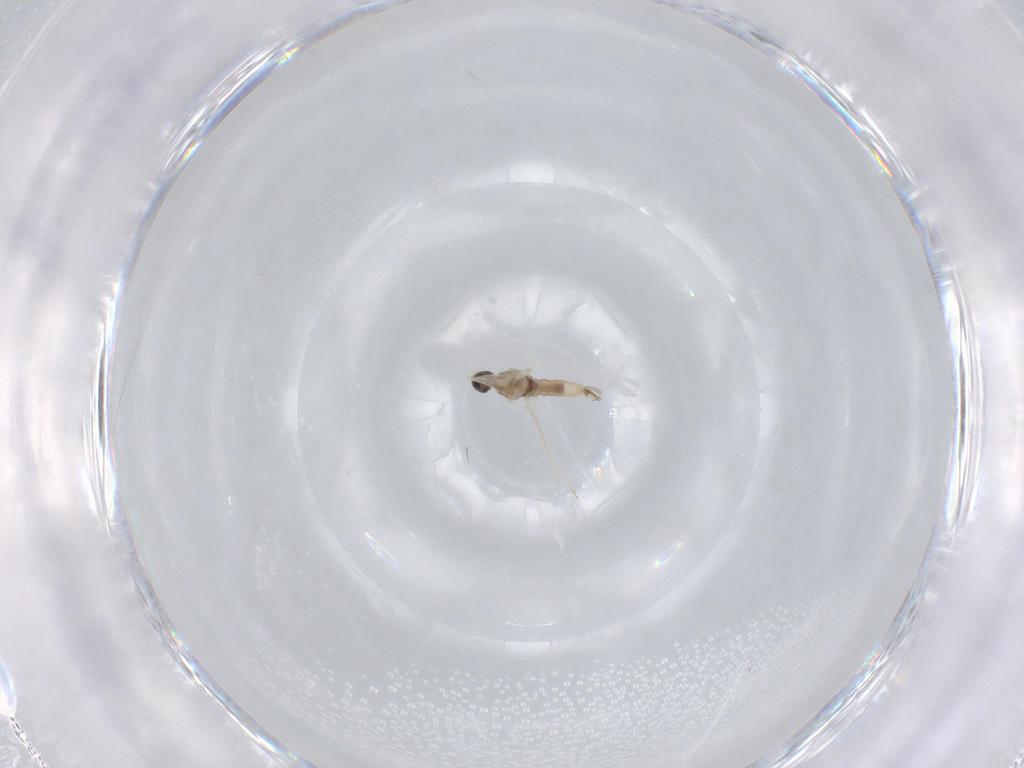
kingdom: Animalia
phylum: Arthropoda
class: Insecta
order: Diptera
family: Cecidomyiidae
